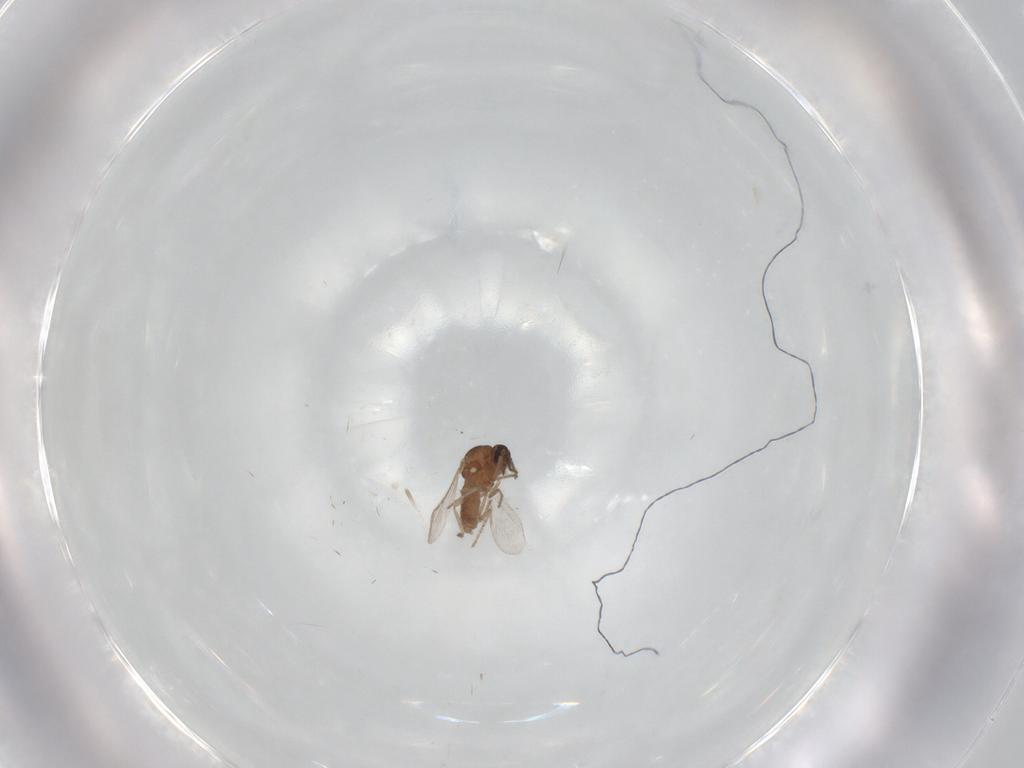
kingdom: Animalia
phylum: Arthropoda
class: Insecta
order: Diptera
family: Ceratopogonidae
